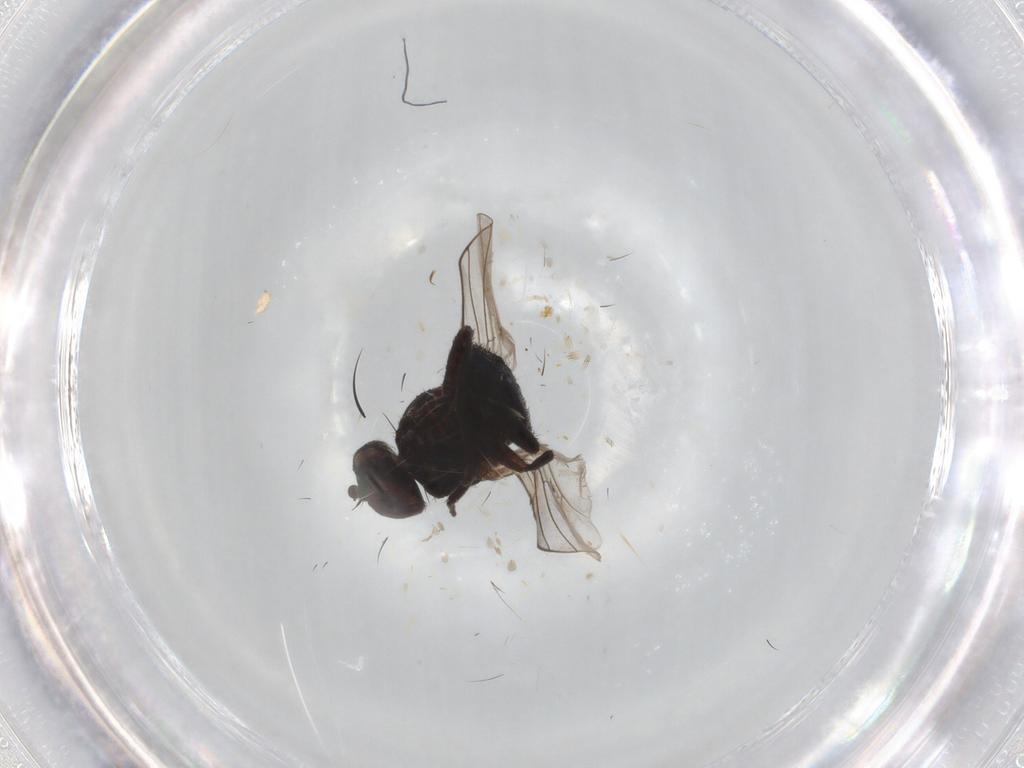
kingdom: Animalia
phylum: Arthropoda
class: Insecta
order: Diptera
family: Agromyzidae
